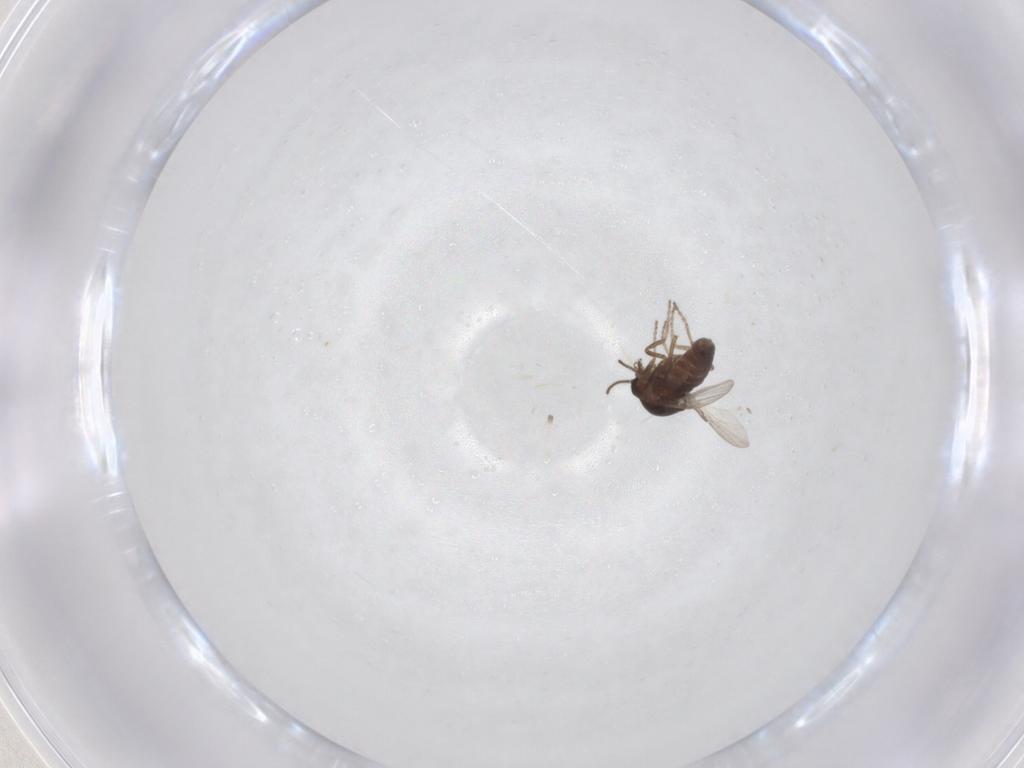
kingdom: Animalia
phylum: Arthropoda
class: Insecta
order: Diptera
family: Ceratopogonidae
